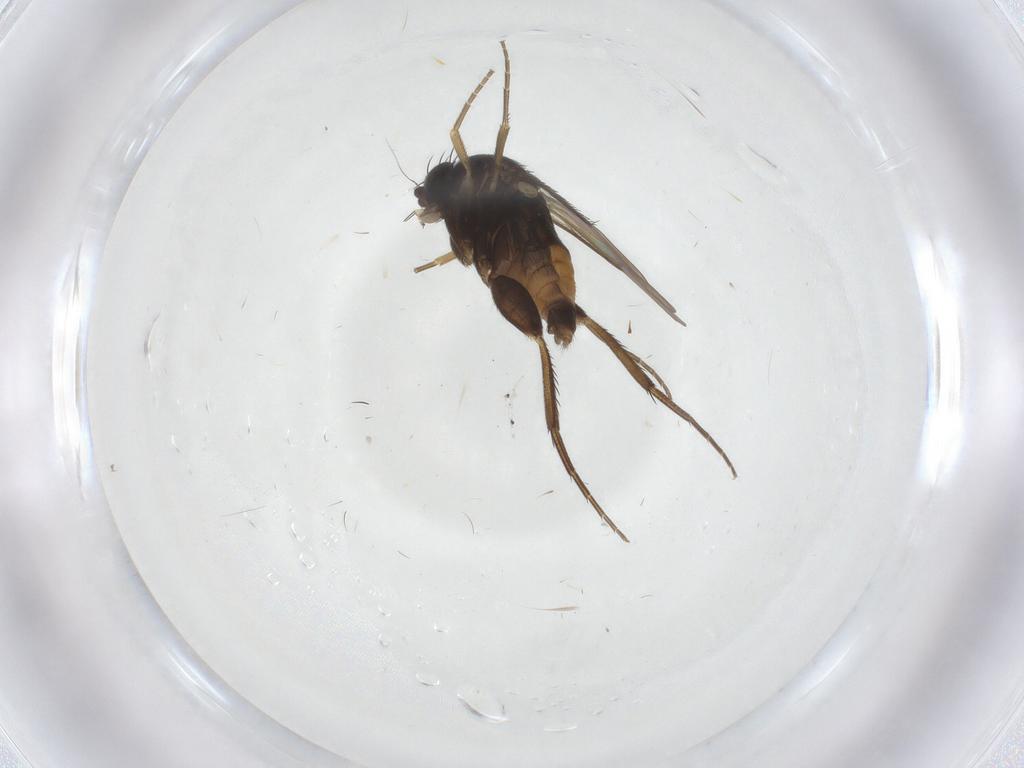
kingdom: Animalia
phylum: Arthropoda
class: Insecta
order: Diptera
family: Phoridae
